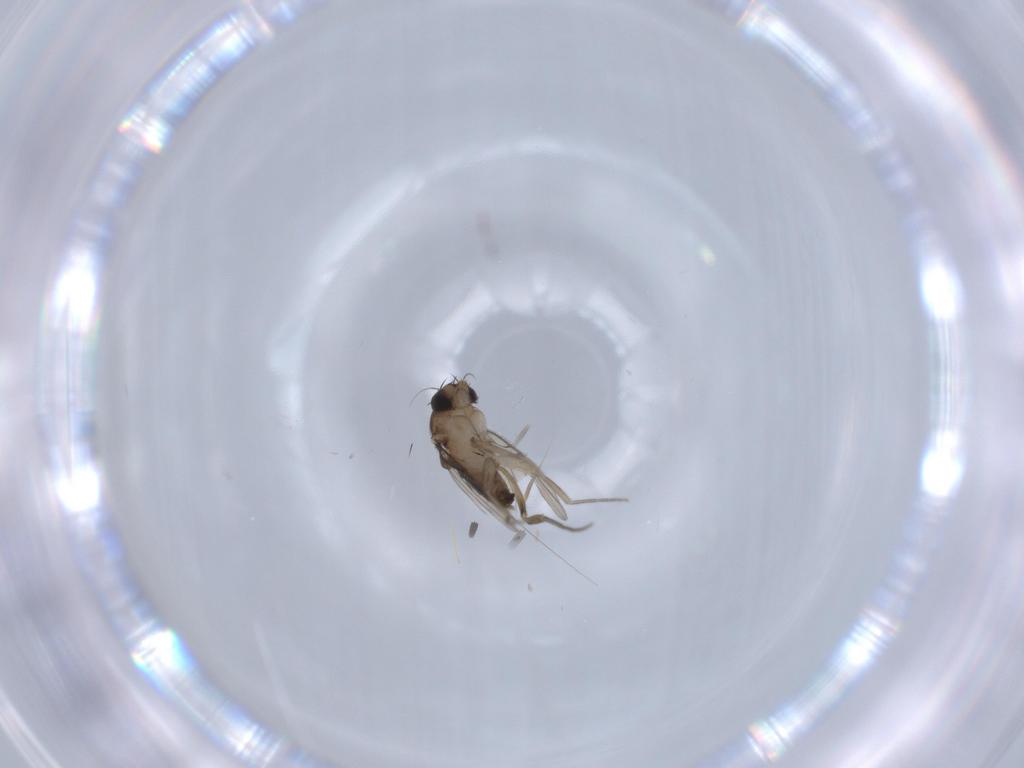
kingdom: Animalia
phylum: Arthropoda
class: Insecta
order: Diptera
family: Phoridae
